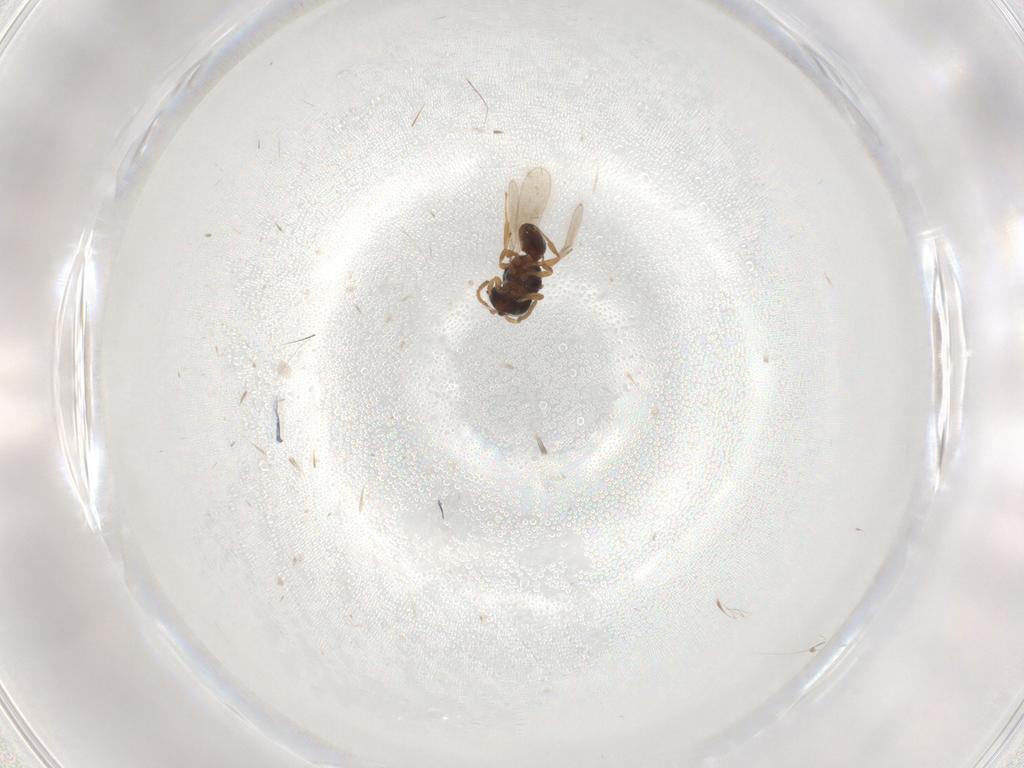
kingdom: Animalia
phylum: Arthropoda
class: Insecta
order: Hymenoptera
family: Scelionidae
